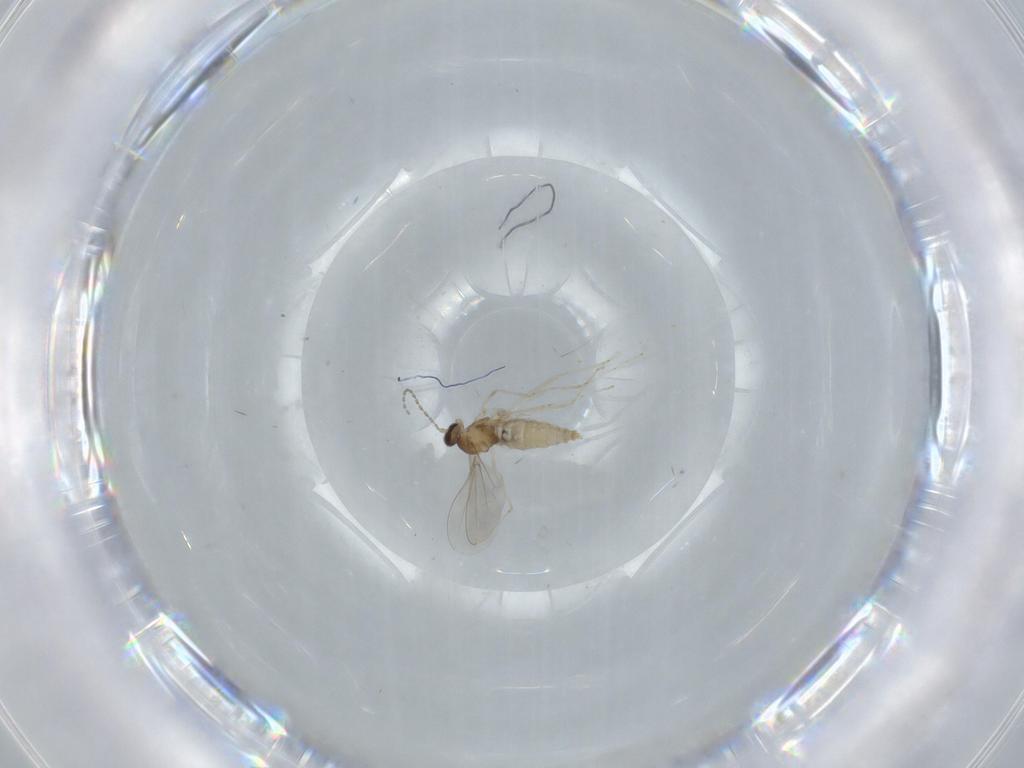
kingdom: Animalia
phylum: Arthropoda
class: Insecta
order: Diptera
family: Cecidomyiidae
